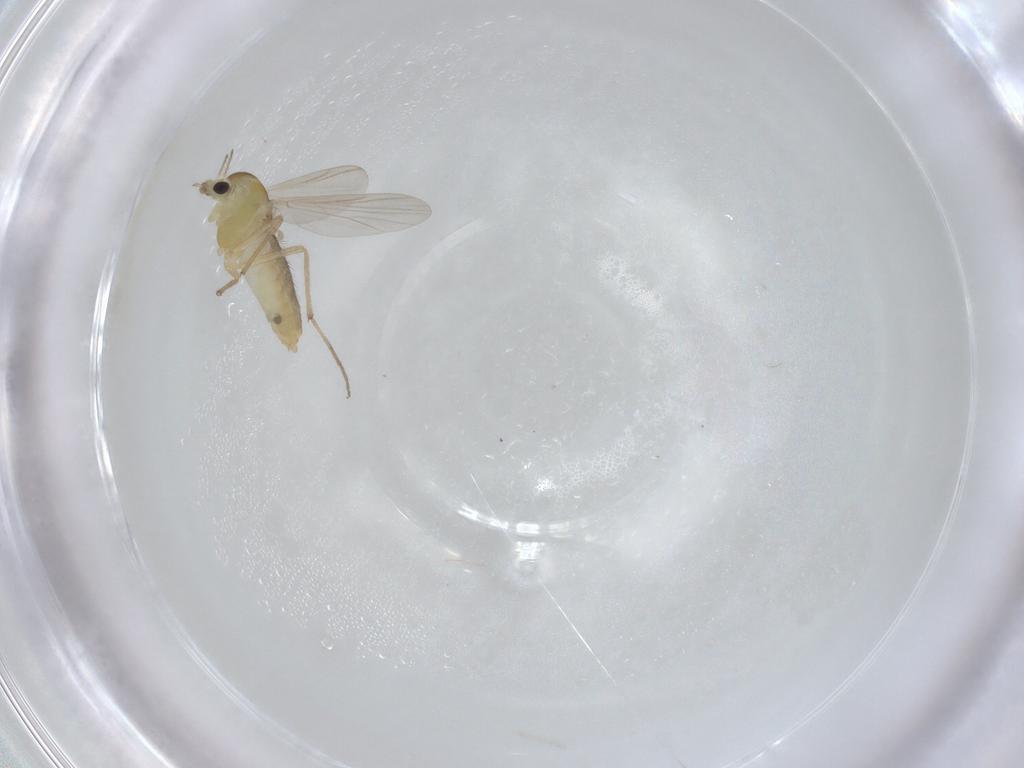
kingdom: Animalia
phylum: Arthropoda
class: Insecta
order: Diptera
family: Chironomidae
